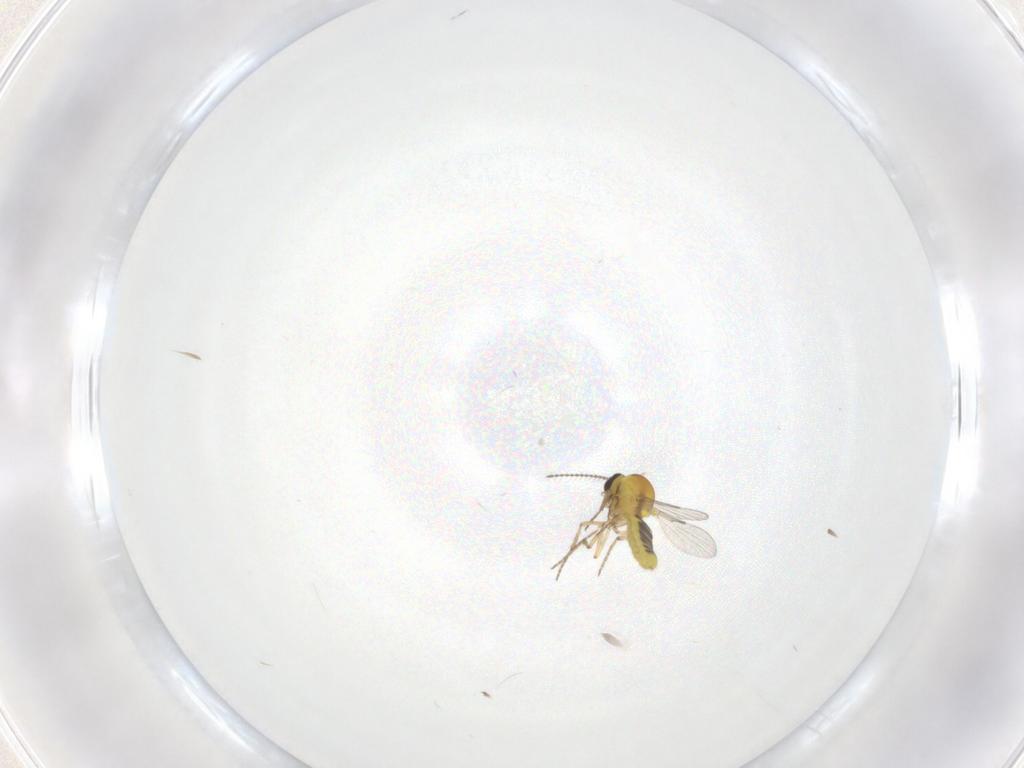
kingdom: Animalia
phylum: Arthropoda
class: Insecta
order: Diptera
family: Ceratopogonidae
